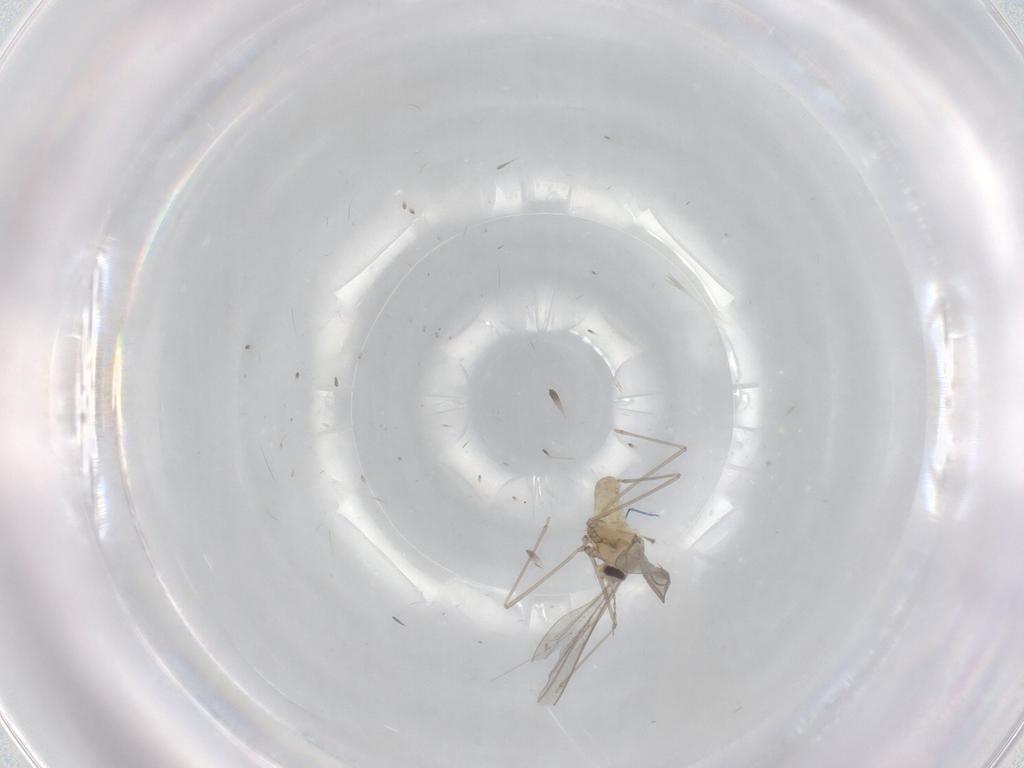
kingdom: Animalia
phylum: Arthropoda
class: Insecta
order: Diptera
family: Cecidomyiidae
